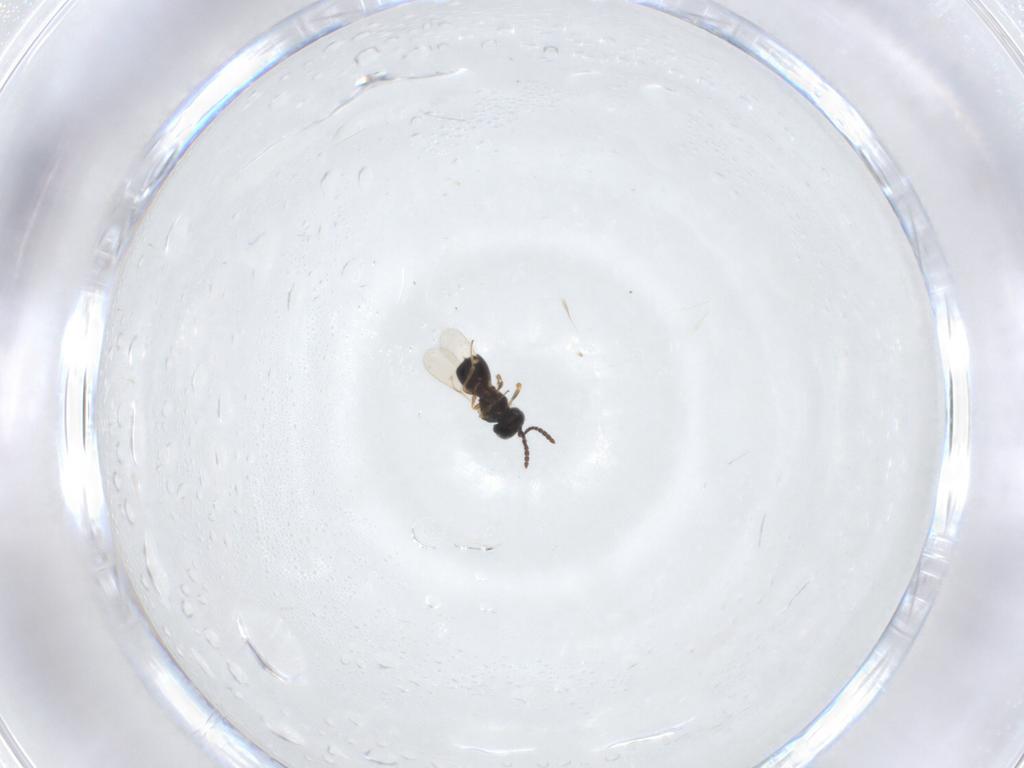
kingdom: Animalia
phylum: Arthropoda
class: Insecta
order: Hymenoptera
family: Scelionidae
